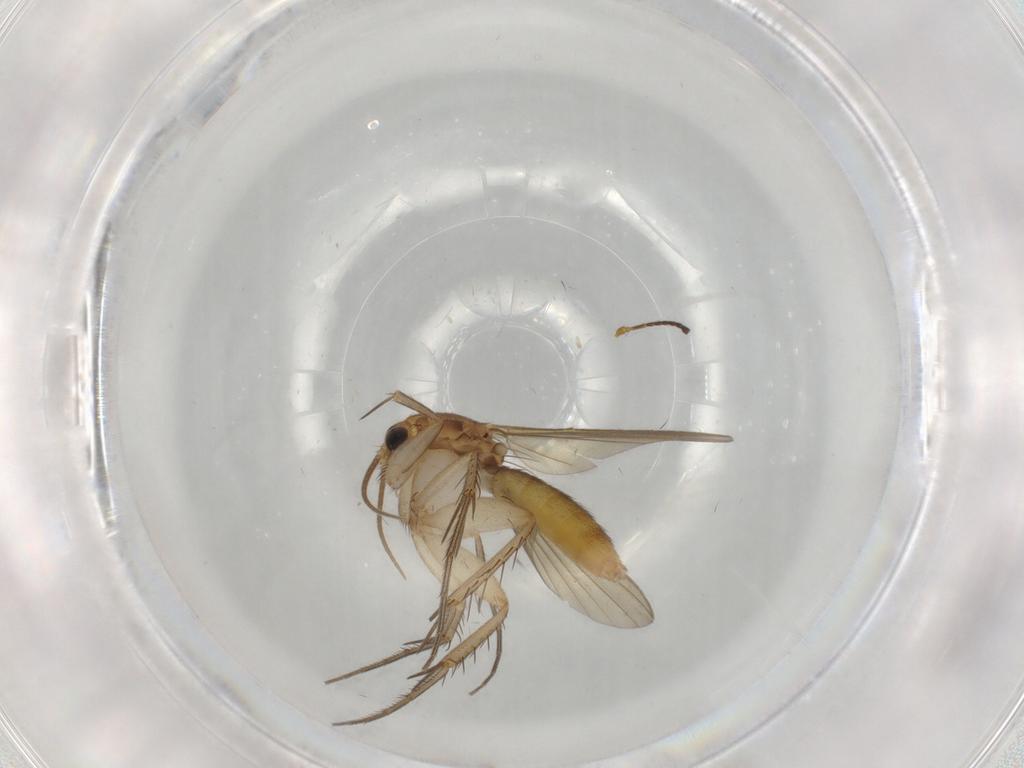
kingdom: Animalia
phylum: Arthropoda
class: Insecta
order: Diptera
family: Cecidomyiidae
